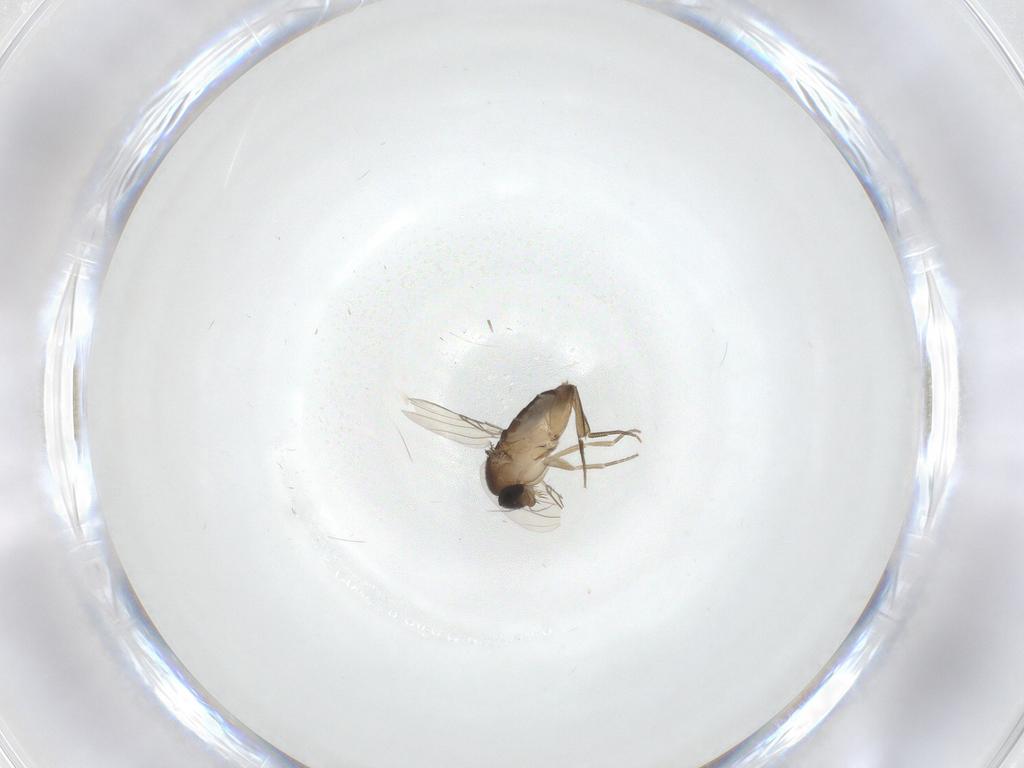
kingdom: Animalia
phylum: Arthropoda
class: Insecta
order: Diptera
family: Phoridae
